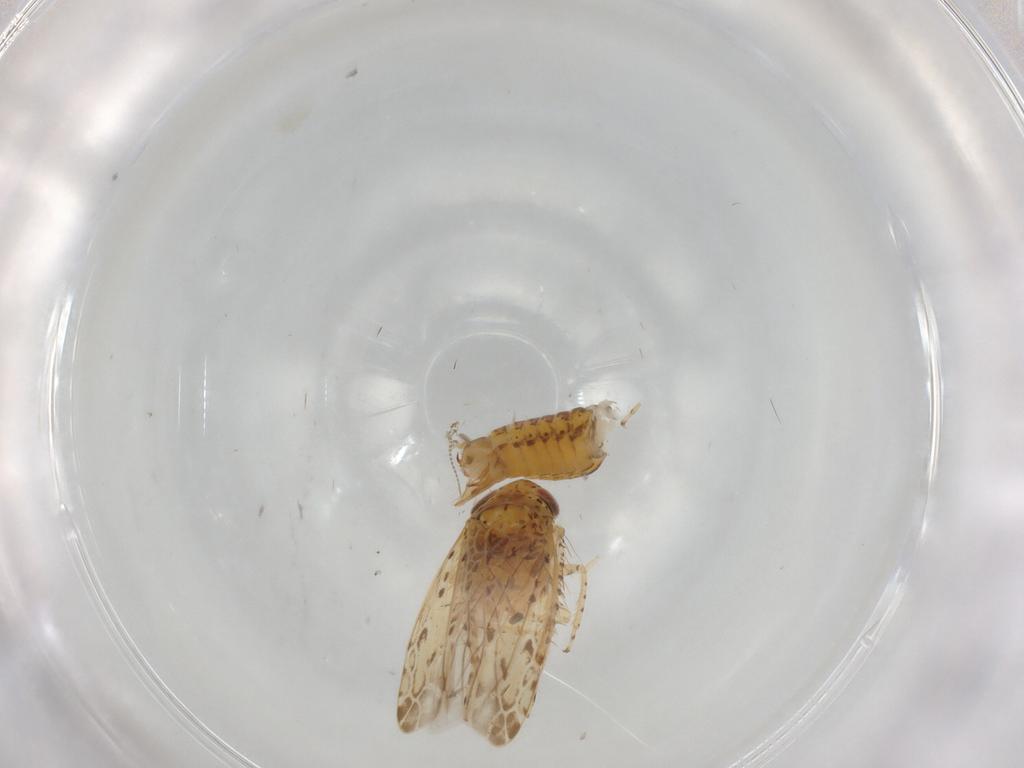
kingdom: Animalia
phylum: Arthropoda
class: Insecta
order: Hemiptera
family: Cicadellidae
